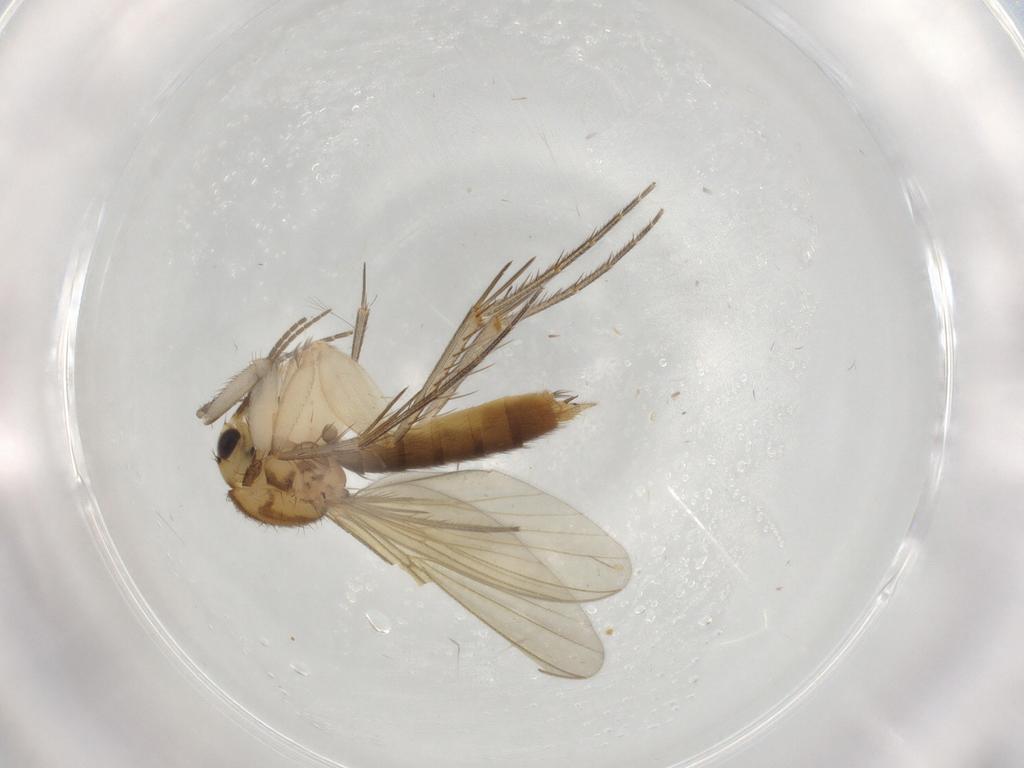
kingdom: Animalia
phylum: Arthropoda
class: Insecta
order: Diptera
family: Mycetophilidae
